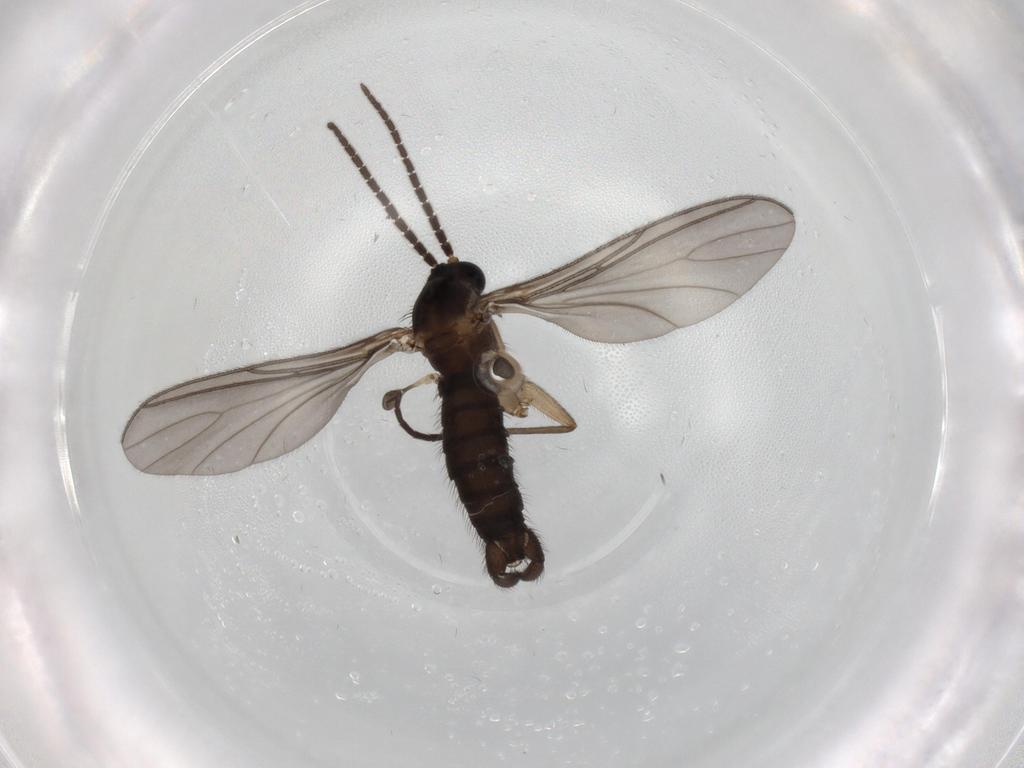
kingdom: Animalia
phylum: Arthropoda
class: Insecta
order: Diptera
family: Sciaridae
